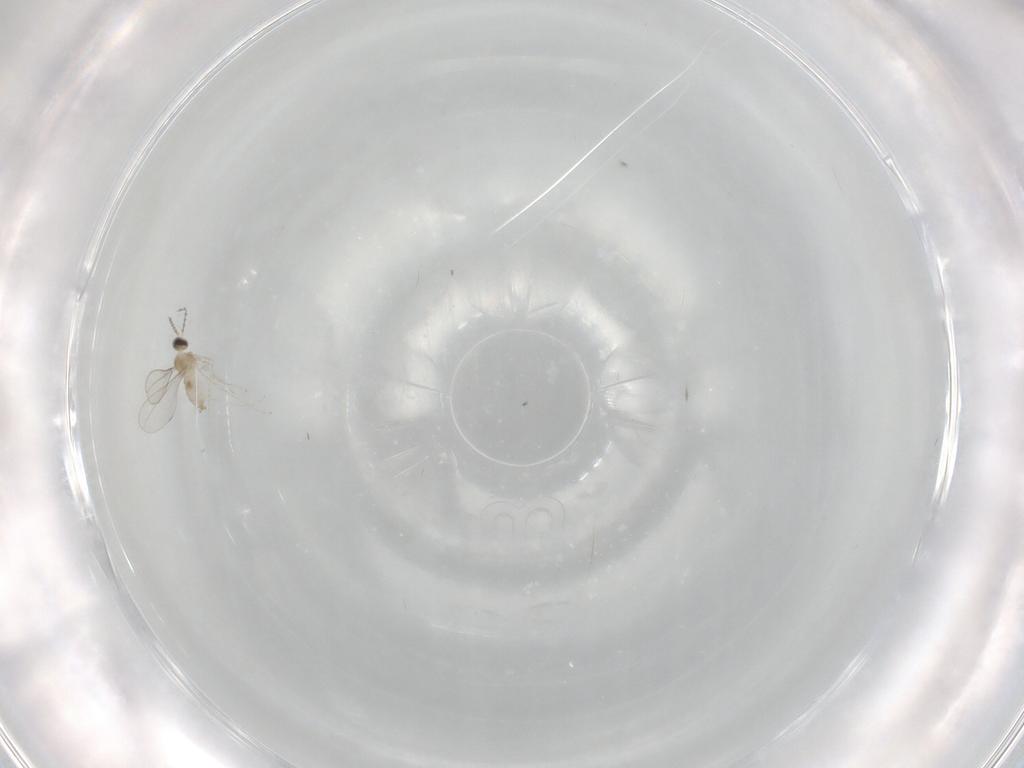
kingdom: Animalia
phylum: Arthropoda
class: Insecta
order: Diptera
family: Cecidomyiidae
